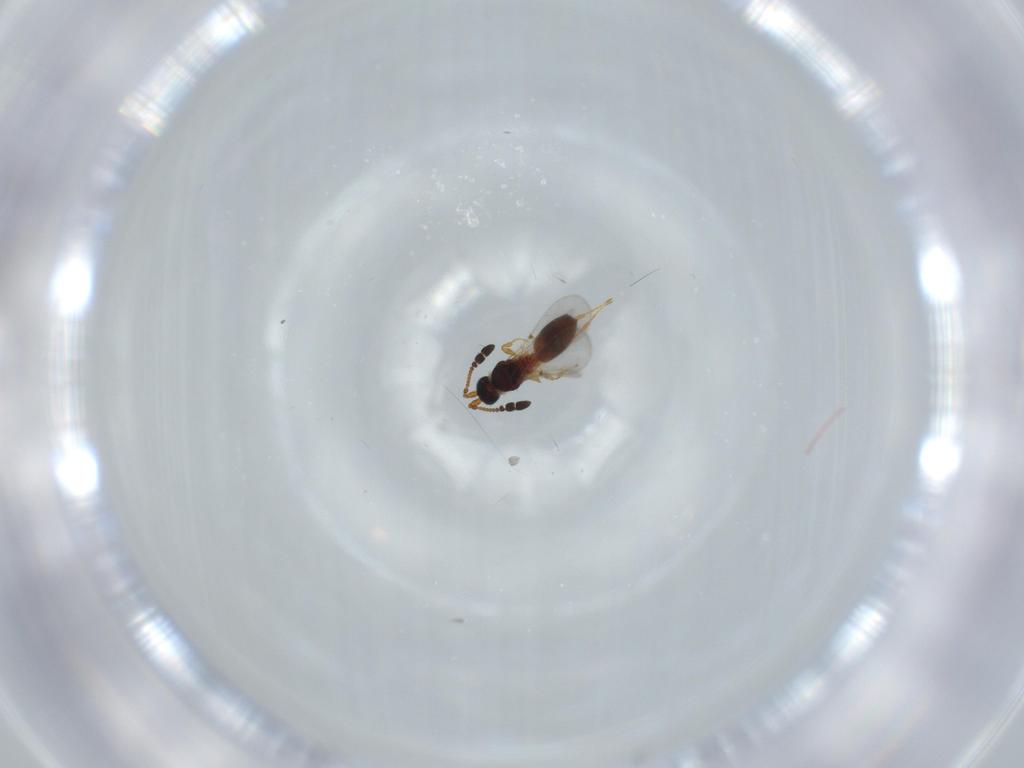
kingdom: Animalia
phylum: Arthropoda
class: Insecta
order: Hymenoptera
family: Diapriidae
